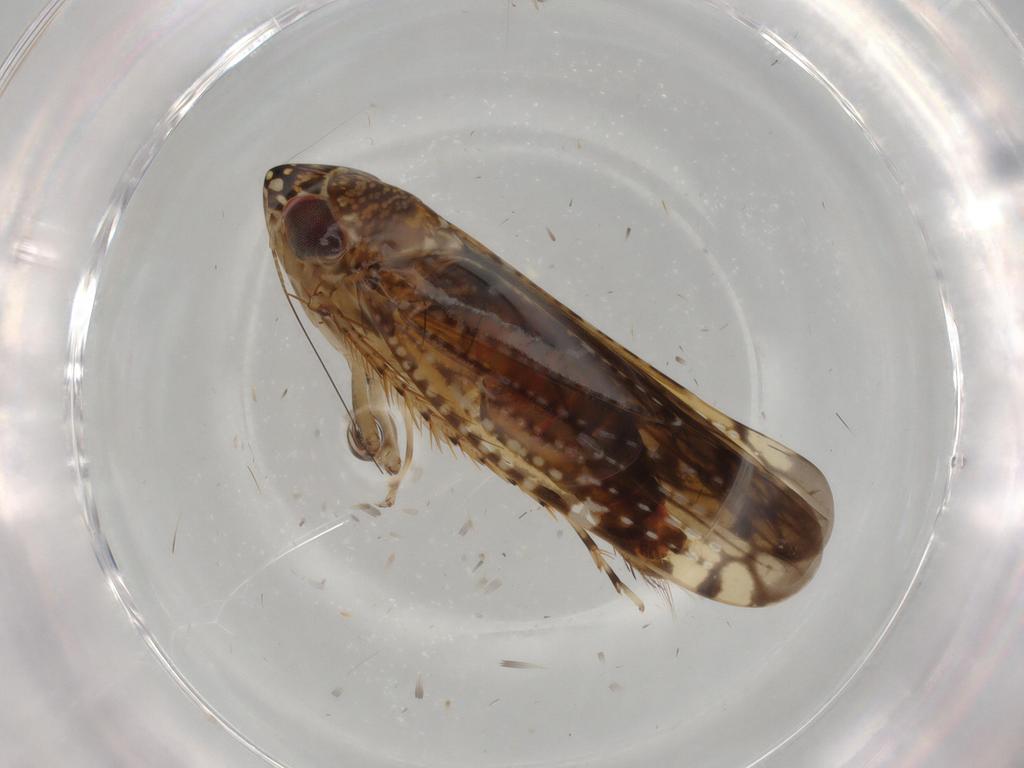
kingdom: Animalia
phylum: Arthropoda
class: Insecta
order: Hemiptera
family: Cicadellidae
